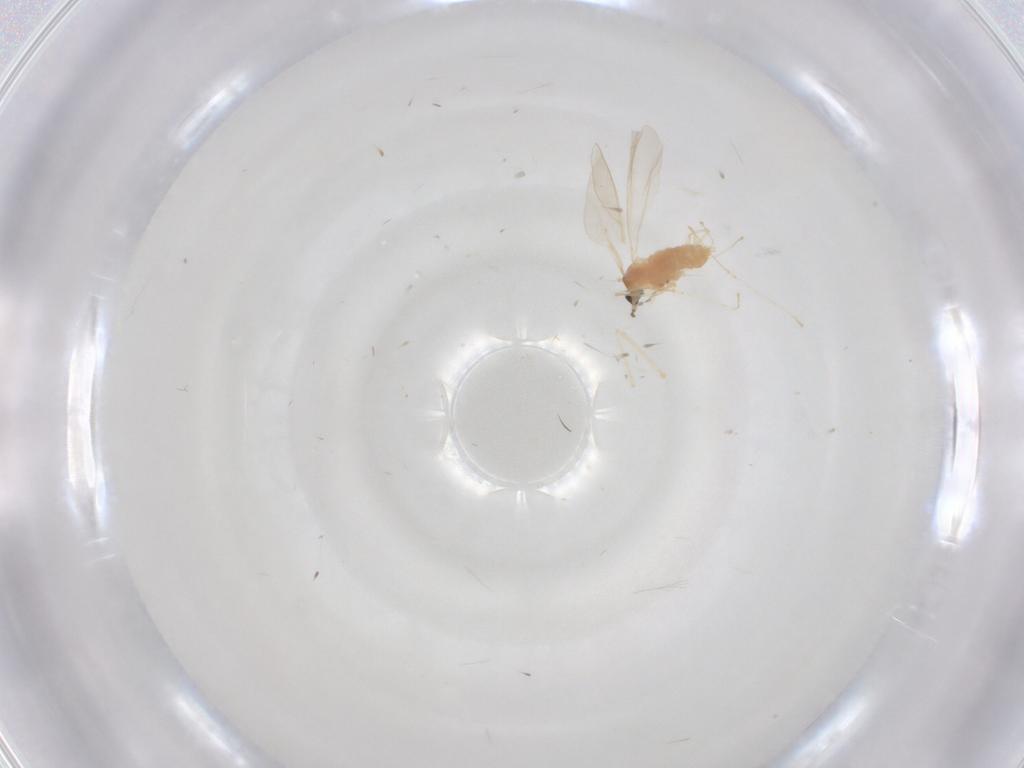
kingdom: Animalia
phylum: Arthropoda
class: Insecta
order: Diptera
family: Cecidomyiidae
